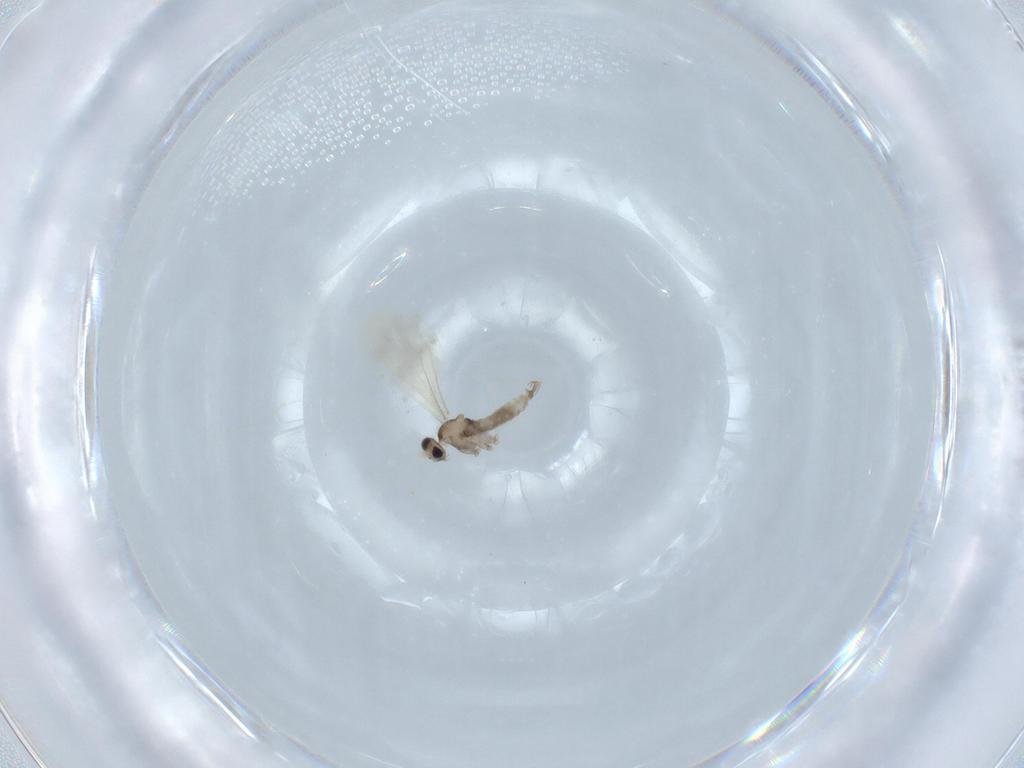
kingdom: Animalia
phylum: Arthropoda
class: Insecta
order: Diptera
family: Cecidomyiidae
